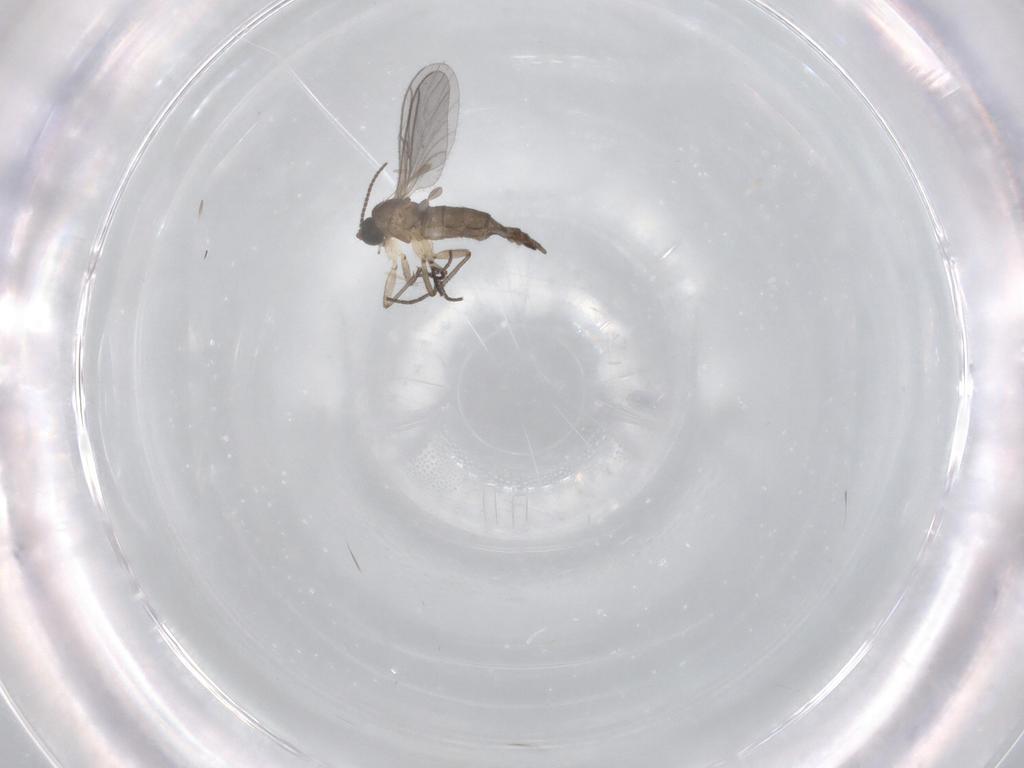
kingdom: Animalia
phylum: Arthropoda
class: Insecta
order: Diptera
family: Sciaridae
